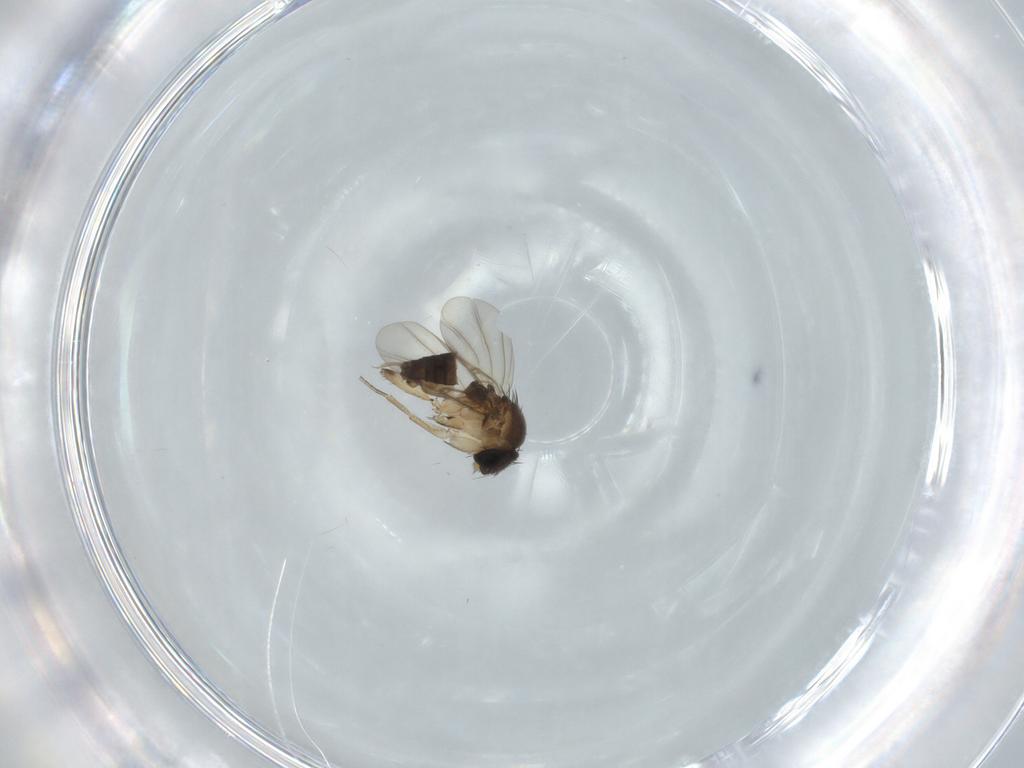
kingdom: Animalia
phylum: Arthropoda
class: Insecta
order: Diptera
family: Phoridae
